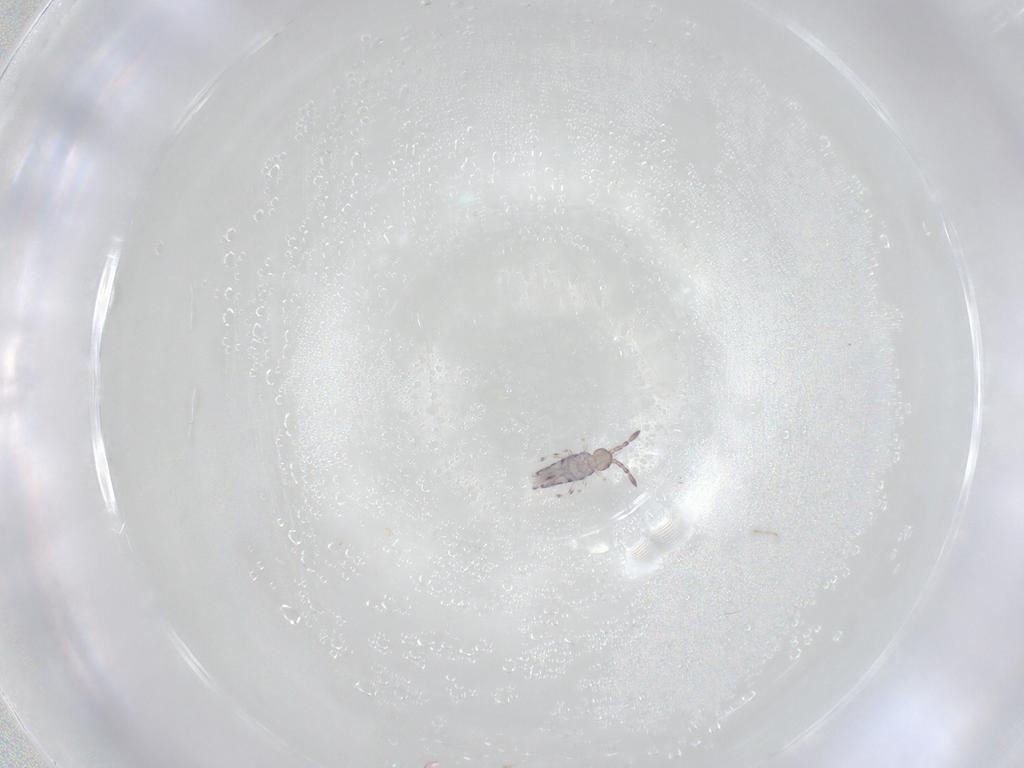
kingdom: Animalia
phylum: Arthropoda
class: Collembola
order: Entomobryomorpha
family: Entomobryidae
